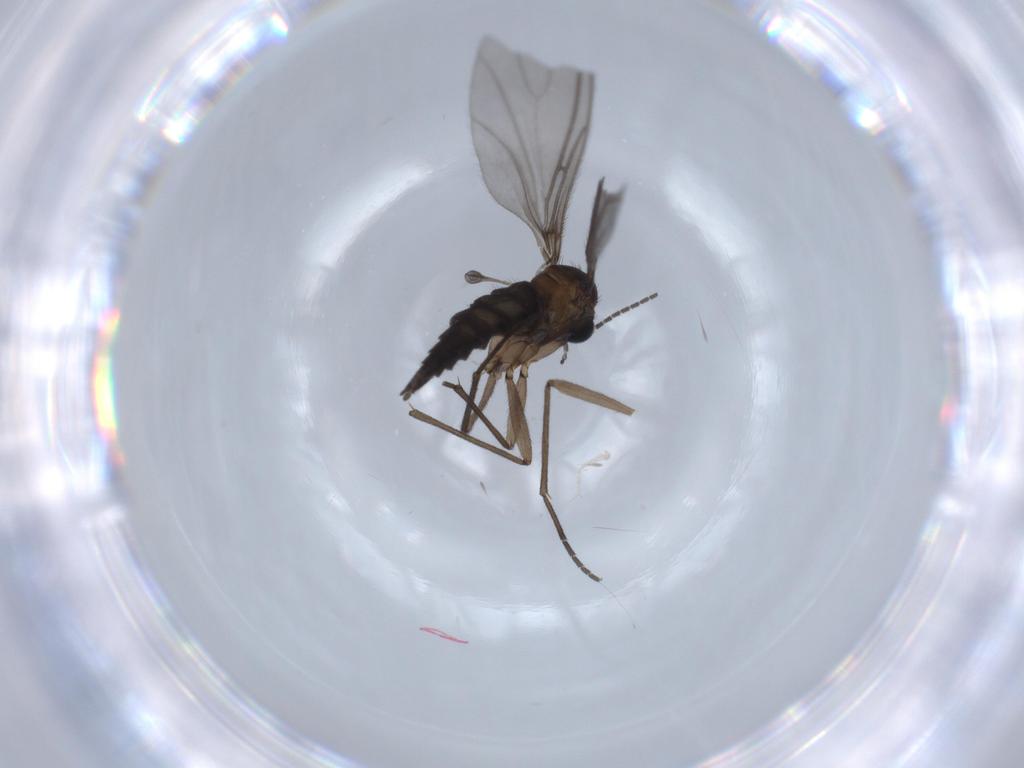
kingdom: Animalia
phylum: Arthropoda
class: Insecta
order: Diptera
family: Sciaridae
